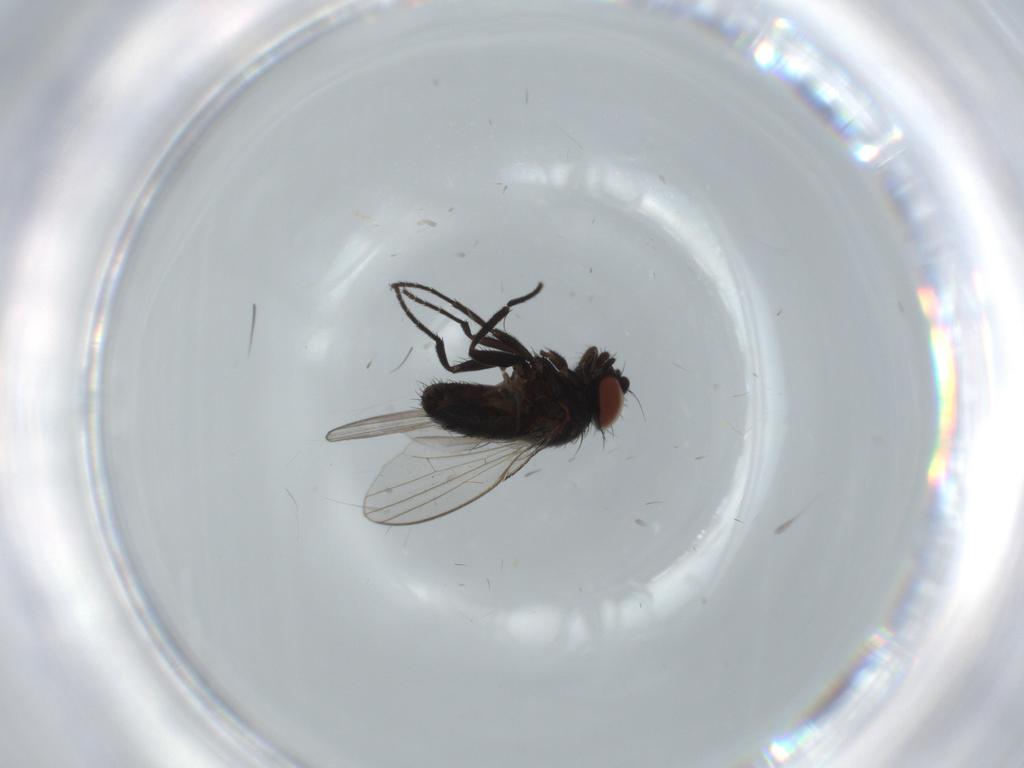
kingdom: Animalia
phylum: Arthropoda
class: Insecta
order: Diptera
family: Milichiidae
